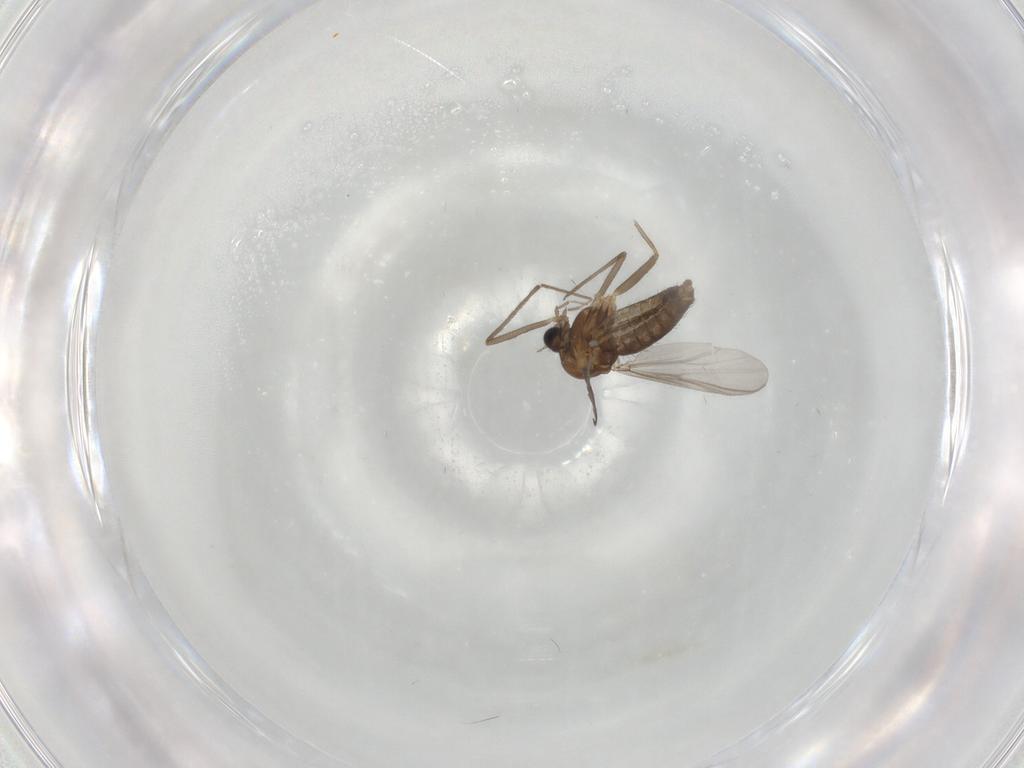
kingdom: Animalia
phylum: Arthropoda
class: Insecta
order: Diptera
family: Chironomidae
